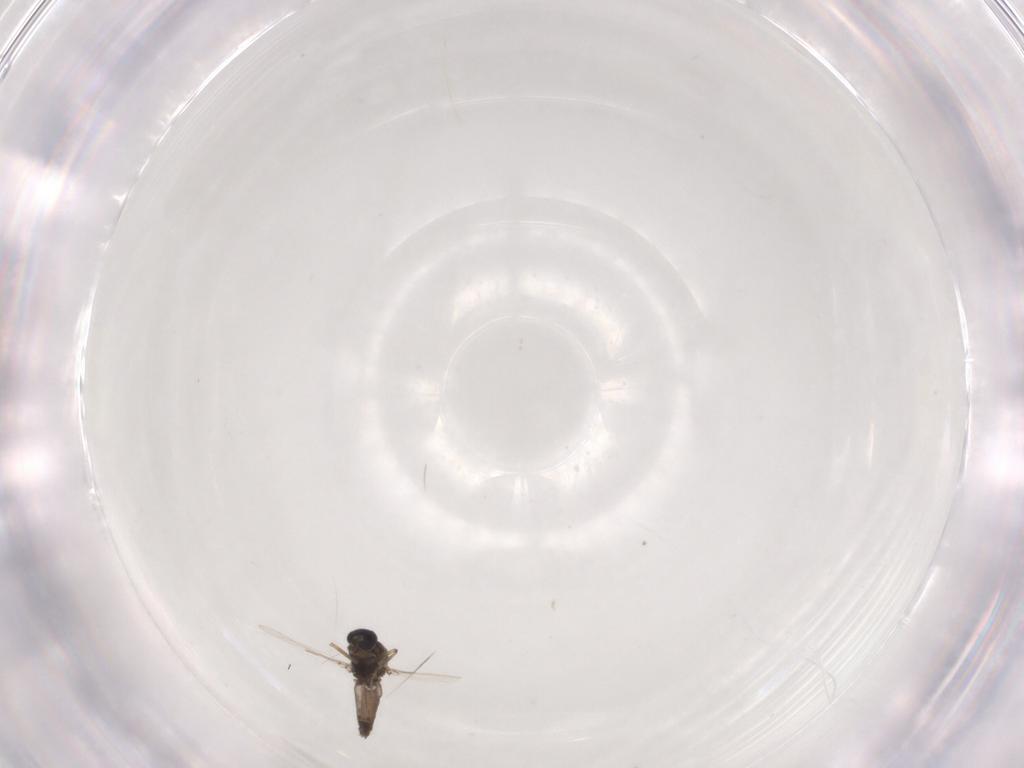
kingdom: Animalia
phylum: Arthropoda
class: Insecta
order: Diptera
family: Ceratopogonidae
